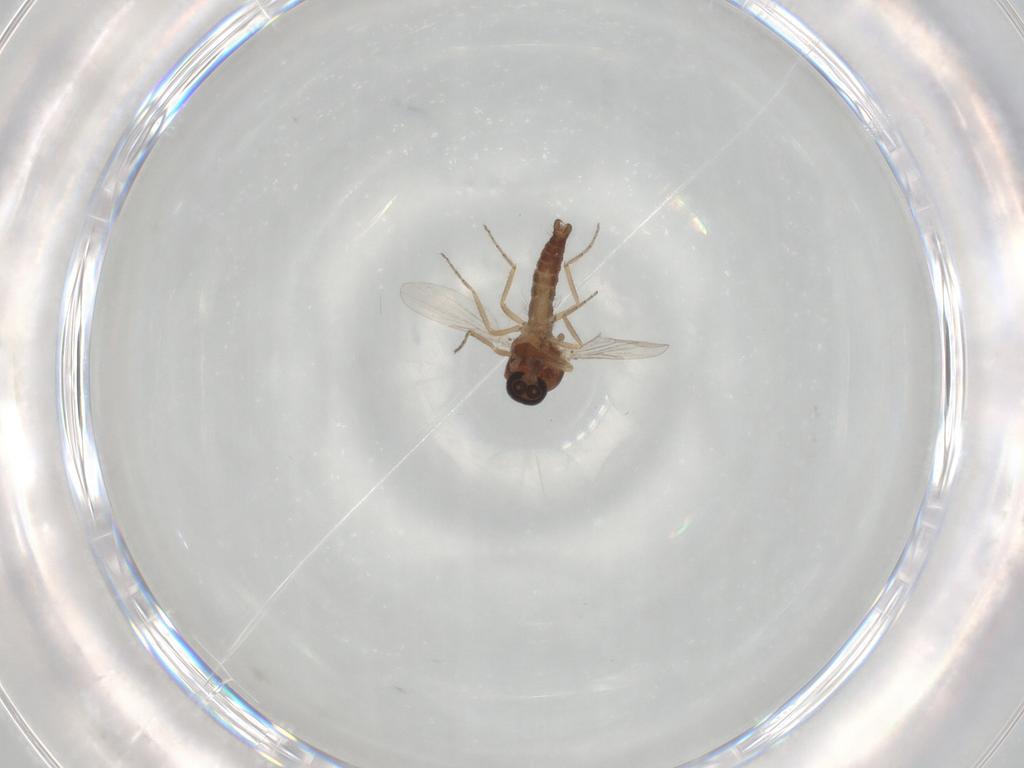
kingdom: Animalia
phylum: Arthropoda
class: Insecta
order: Diptera
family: Ceratopogonidae
